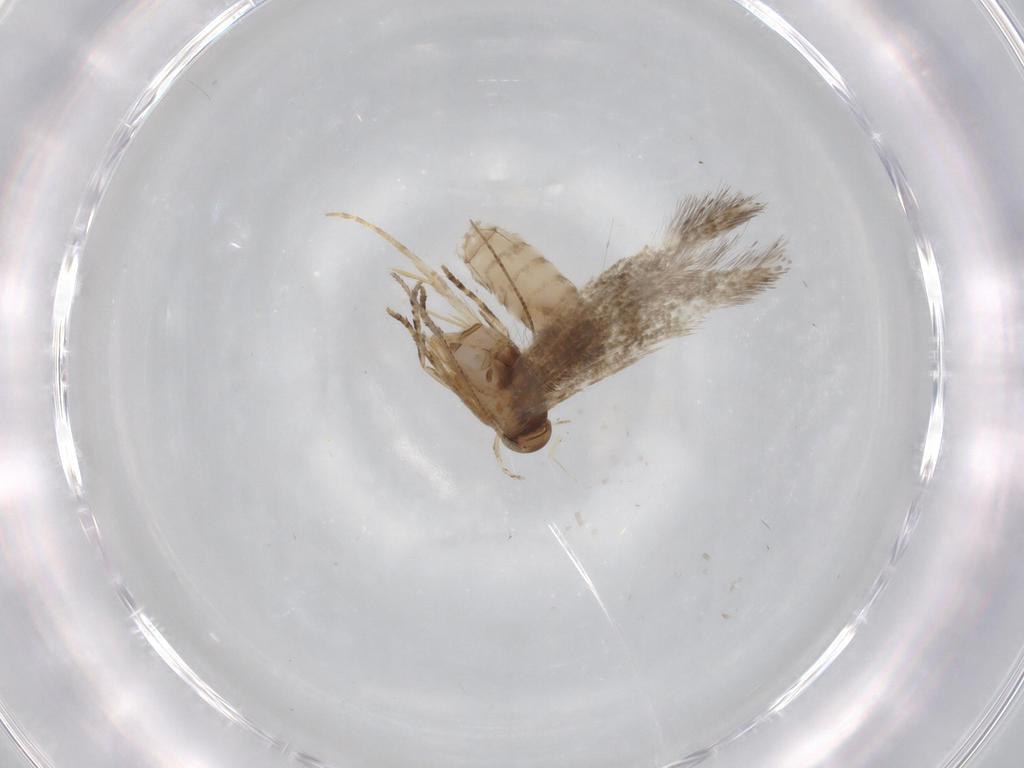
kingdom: Animalia
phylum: Arthropoda
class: Insecta
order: Lepidoptera
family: Elachistidae
